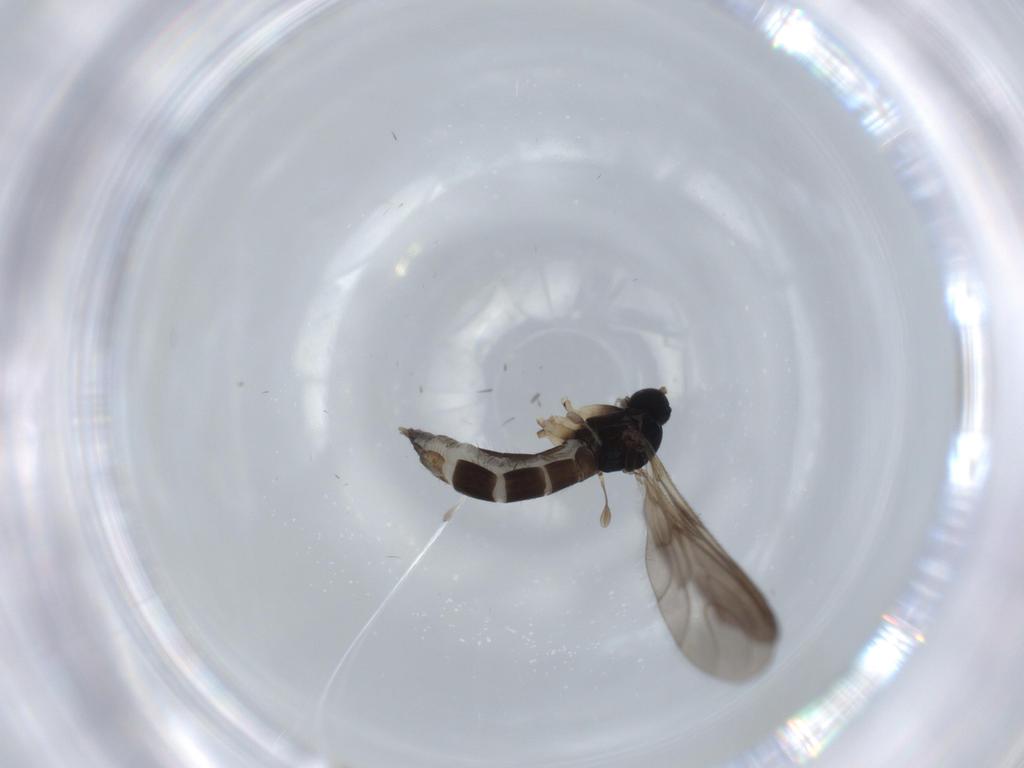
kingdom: Animalia
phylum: Arthropoda
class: Insecta
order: Diptera
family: Sciaridae
